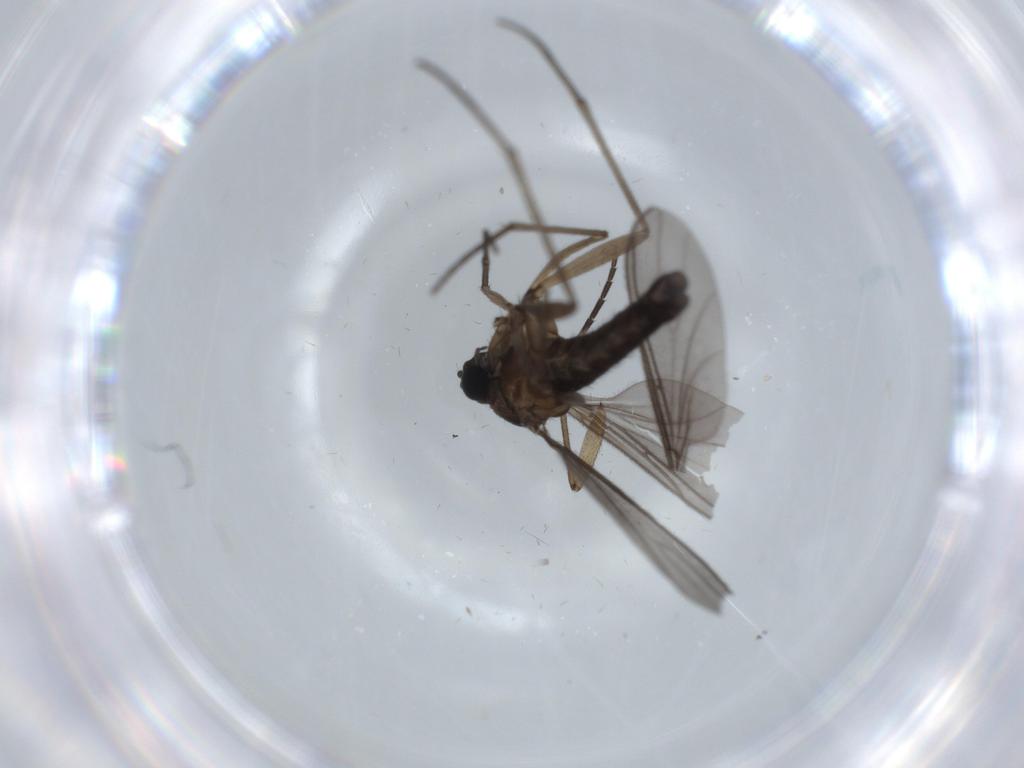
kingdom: Animalia
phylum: Arthropoda
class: Insecta
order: Diptera
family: Sciaridae
